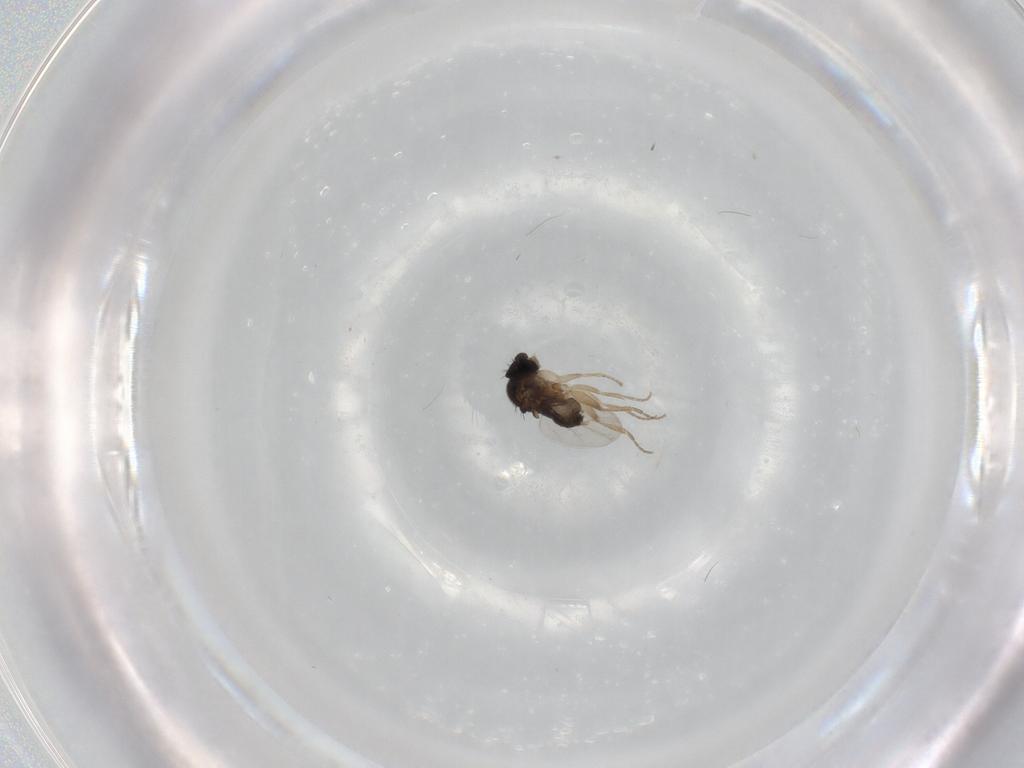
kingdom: Animalia
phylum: Arthropoda
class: Insecta
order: Diptera
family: Phoridae
